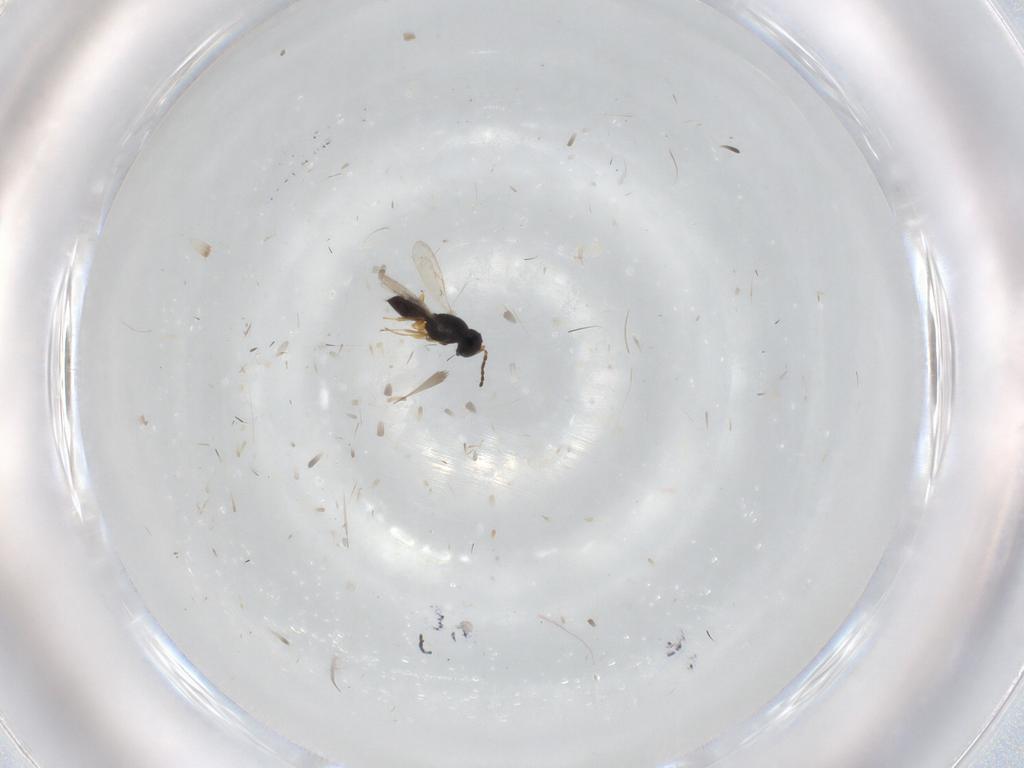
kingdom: Animalia
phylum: Arthropoda
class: Insecta
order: Hymenoptera
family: Scelionidae
